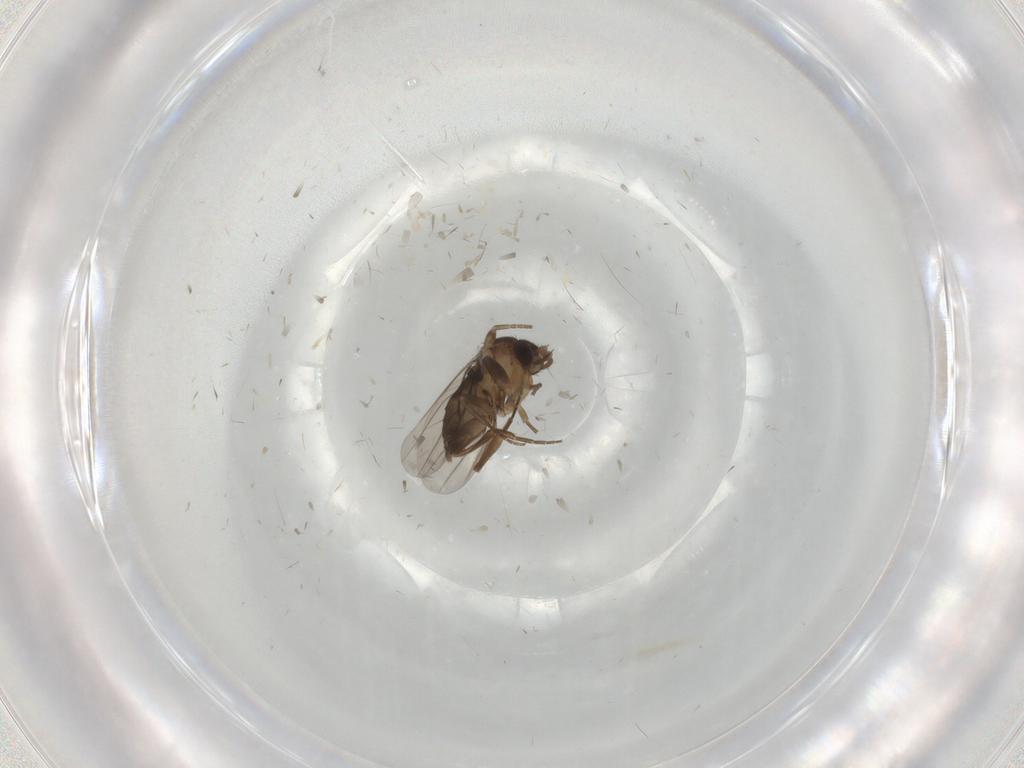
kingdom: Animalia
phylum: Arthropoda
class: Insecta
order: Diptera
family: Phoridae
